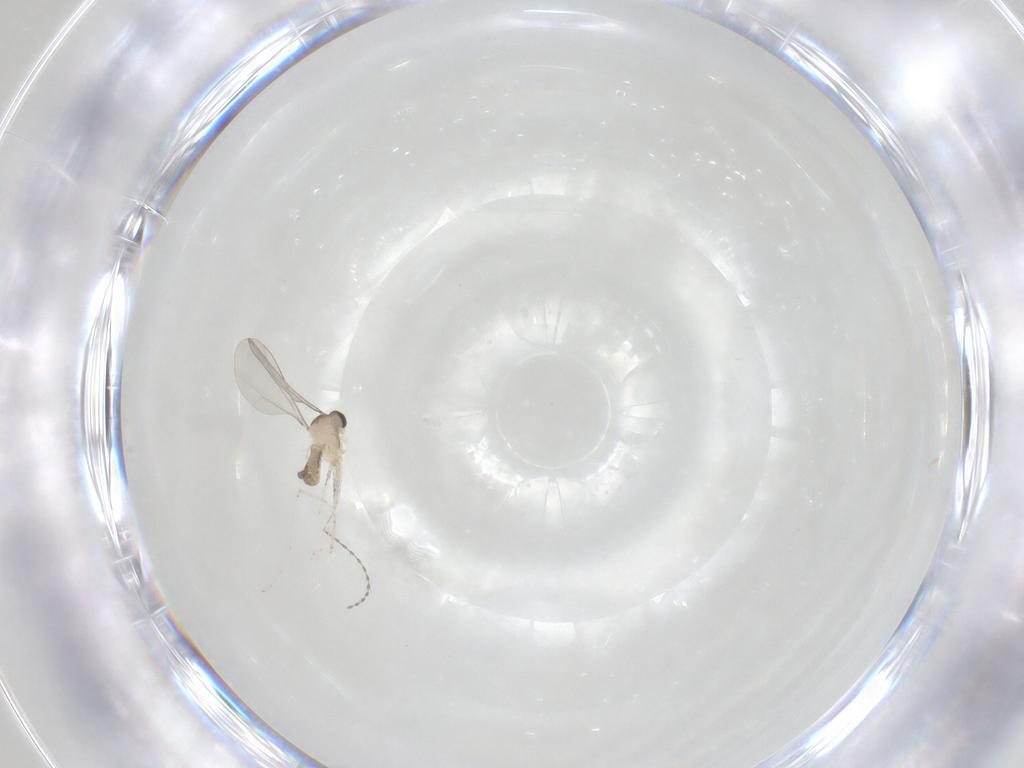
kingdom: Animalia
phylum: Arthropoda
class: Insecta
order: Diptera
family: Cecidomyiidae
